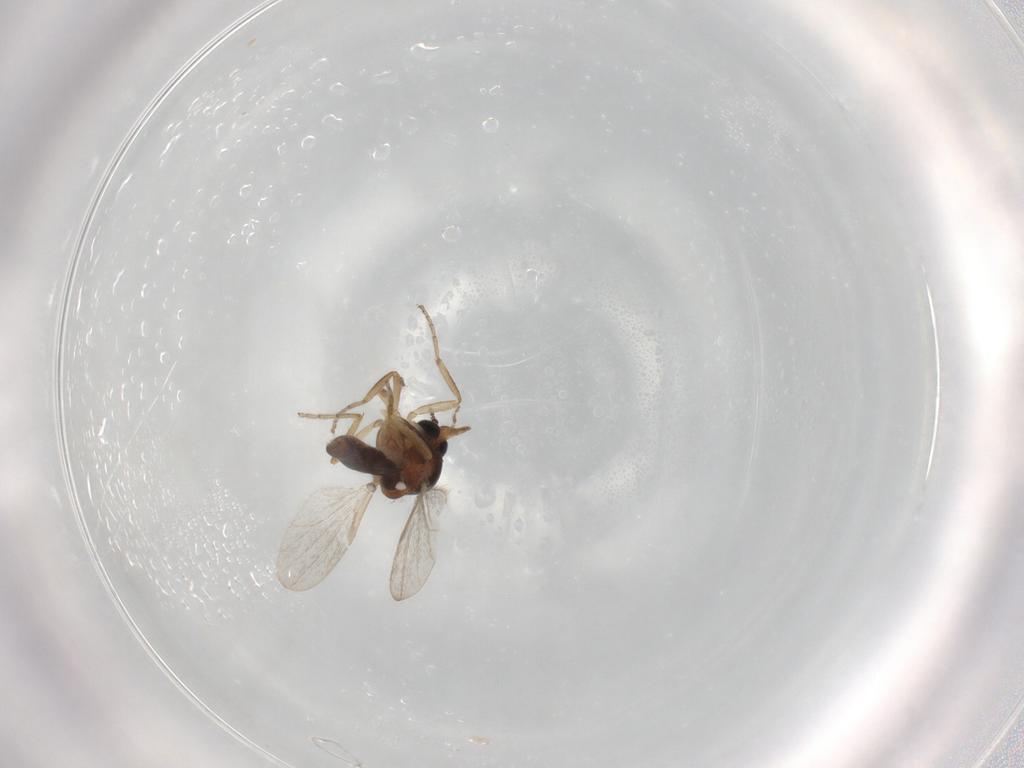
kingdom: Animalia
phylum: Arthropoda
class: Insecta
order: Diptera
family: Ceratopogonidae
